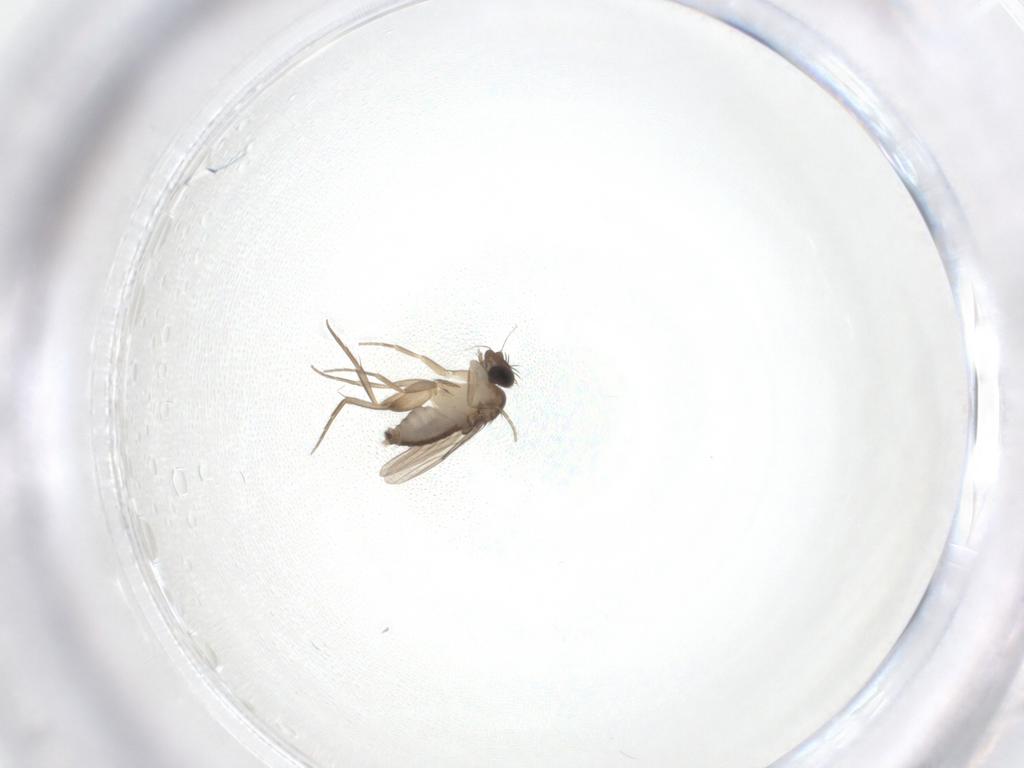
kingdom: Animalia
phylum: Arthropoda
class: Insecta
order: Diptera
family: Phoridae
